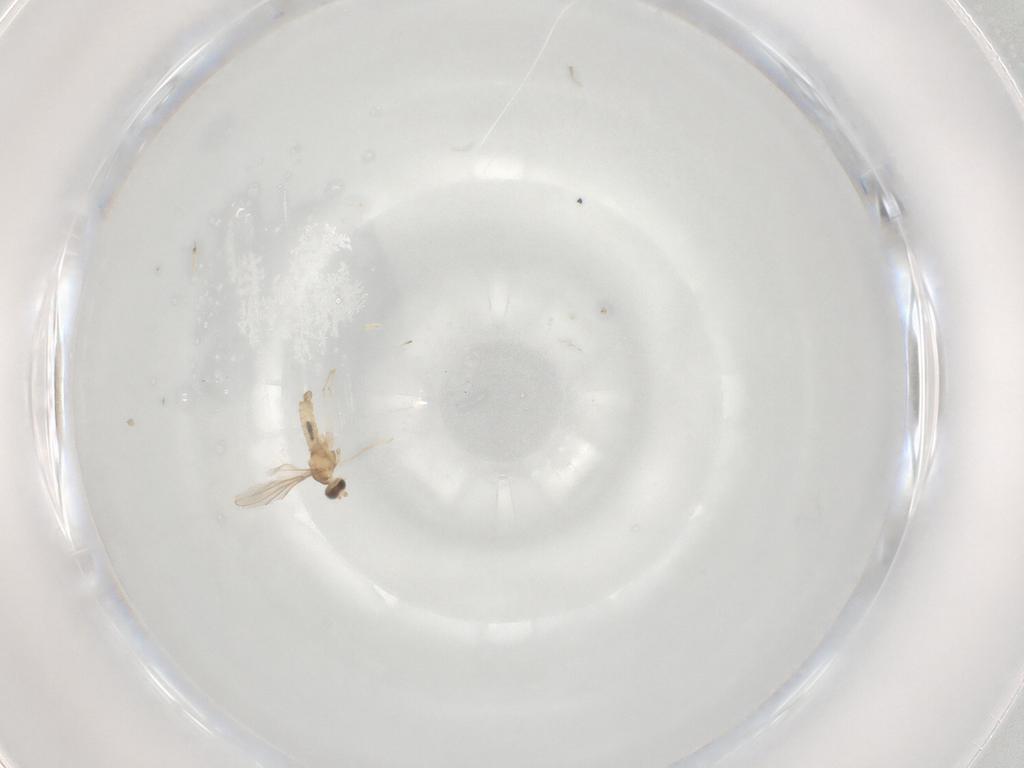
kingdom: Animalia
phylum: Arthropoda
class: Insecta
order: Diptera
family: Cecidomyiidae
